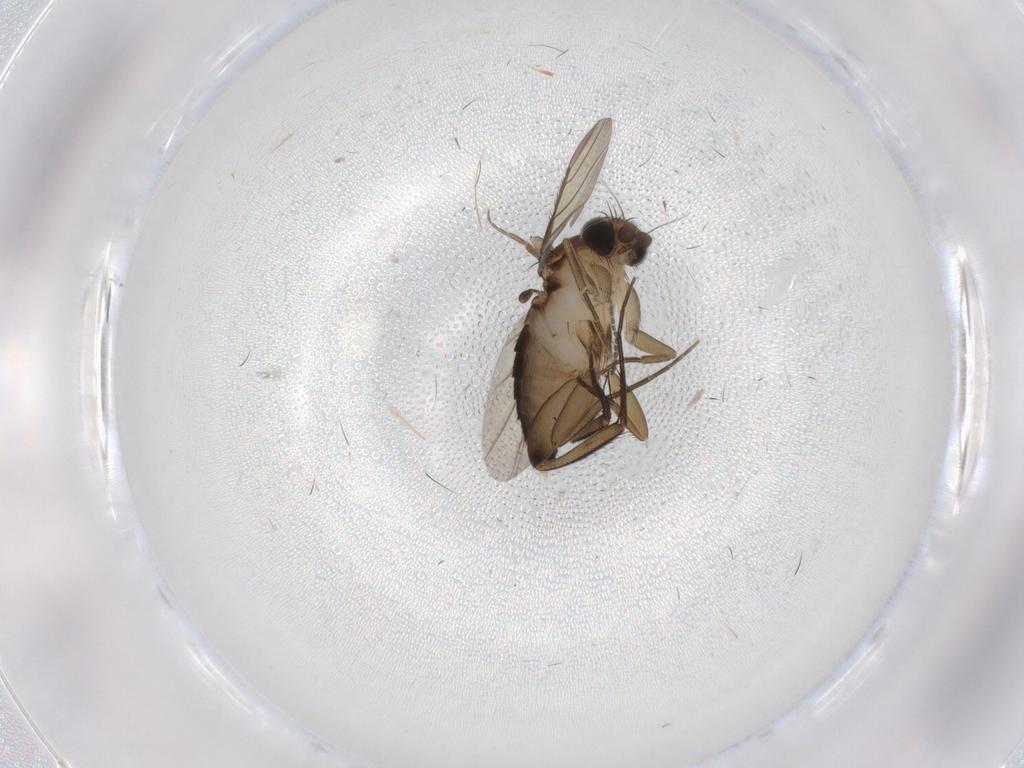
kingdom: Animalia
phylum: Arthropoda
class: Insecta
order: Diptera
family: Phoridae
